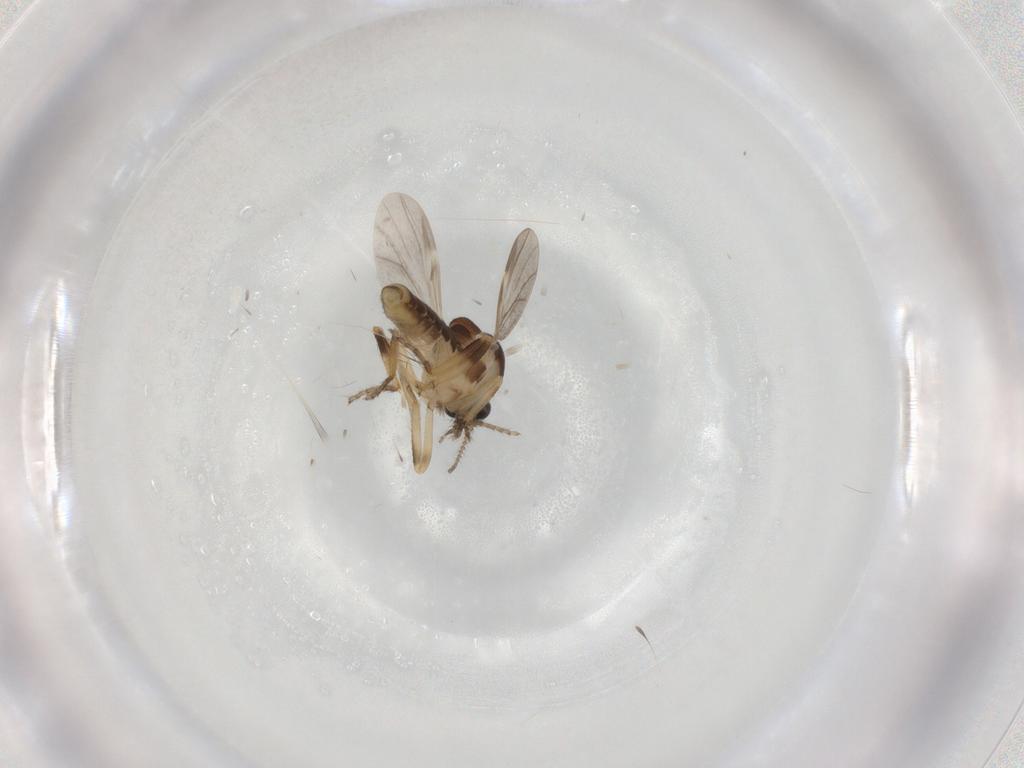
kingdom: Animalia
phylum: Arthropoda
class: Insecta
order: Diptera
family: Ceratopogonidae
